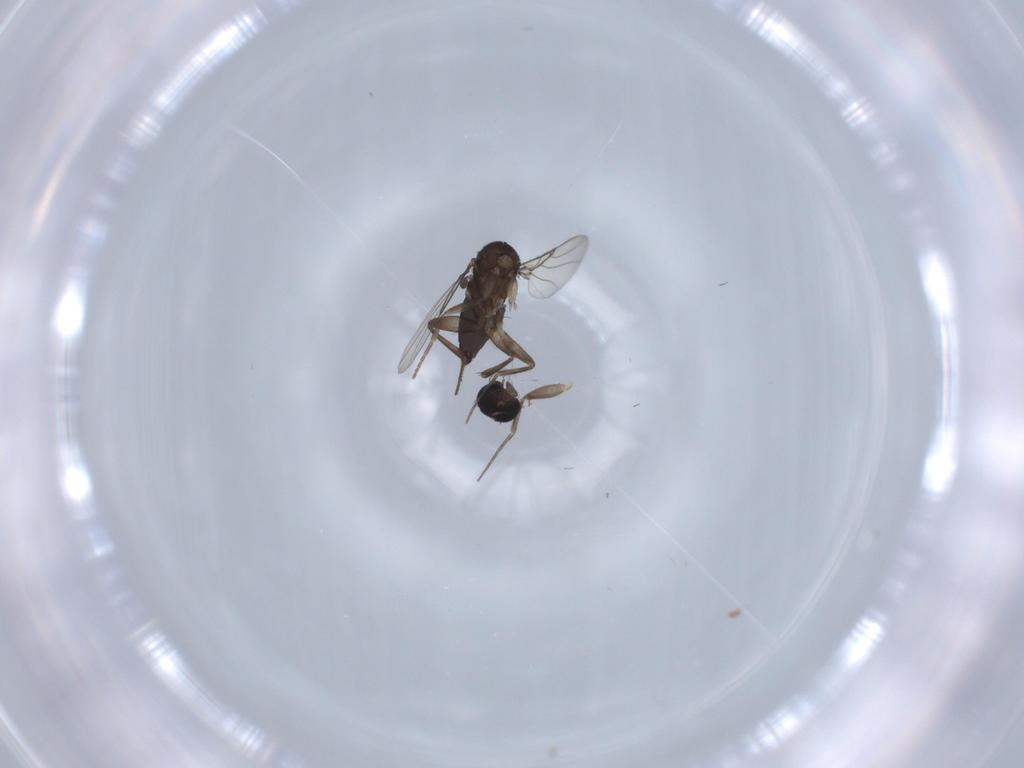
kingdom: Animalia
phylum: Arthropoda
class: Insecta
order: Diptera
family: Phoridae
